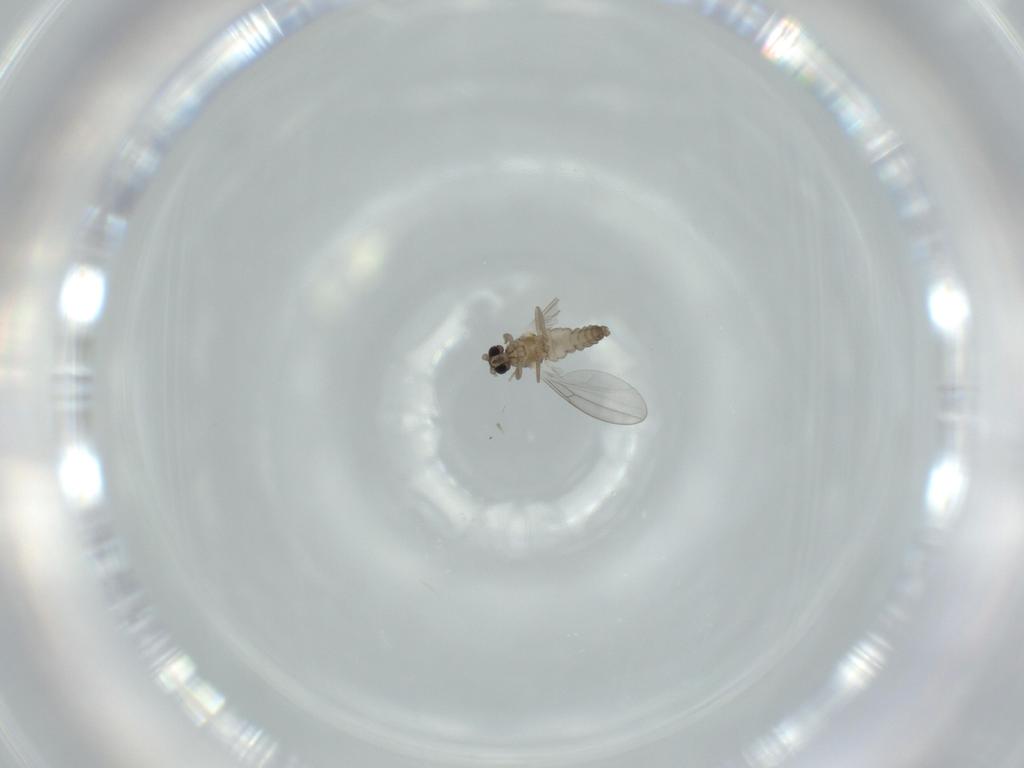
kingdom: Animalia
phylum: Arthropoda
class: Insecta
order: Diptera
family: Cecidomyiidae
